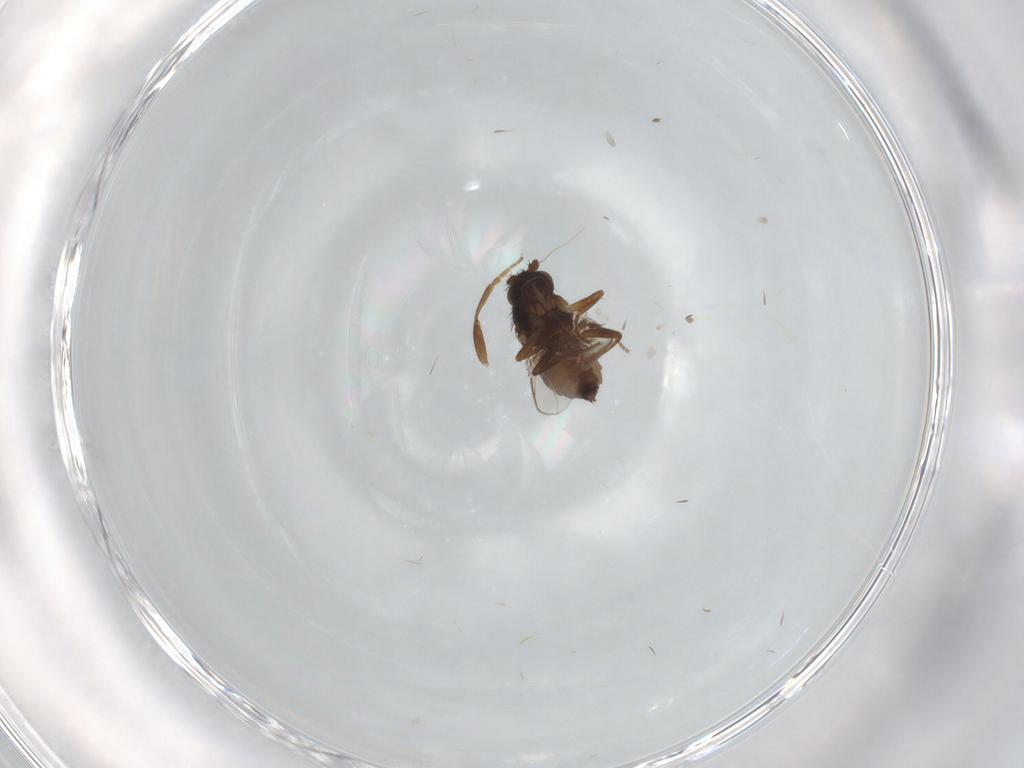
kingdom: Animalia
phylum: Arthropoda
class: Insecta
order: Diptera
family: Sphaeroceridae
